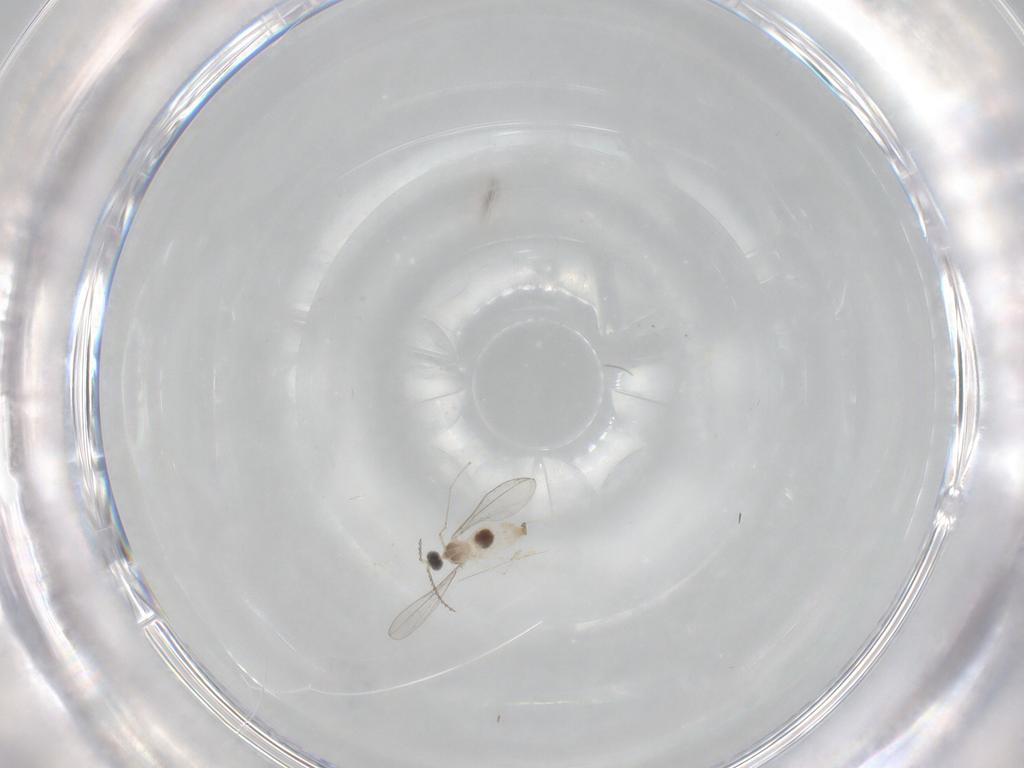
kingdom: Animalia
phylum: Arthropoda
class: Insecta
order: Diptera
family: Cecidomyiidae
